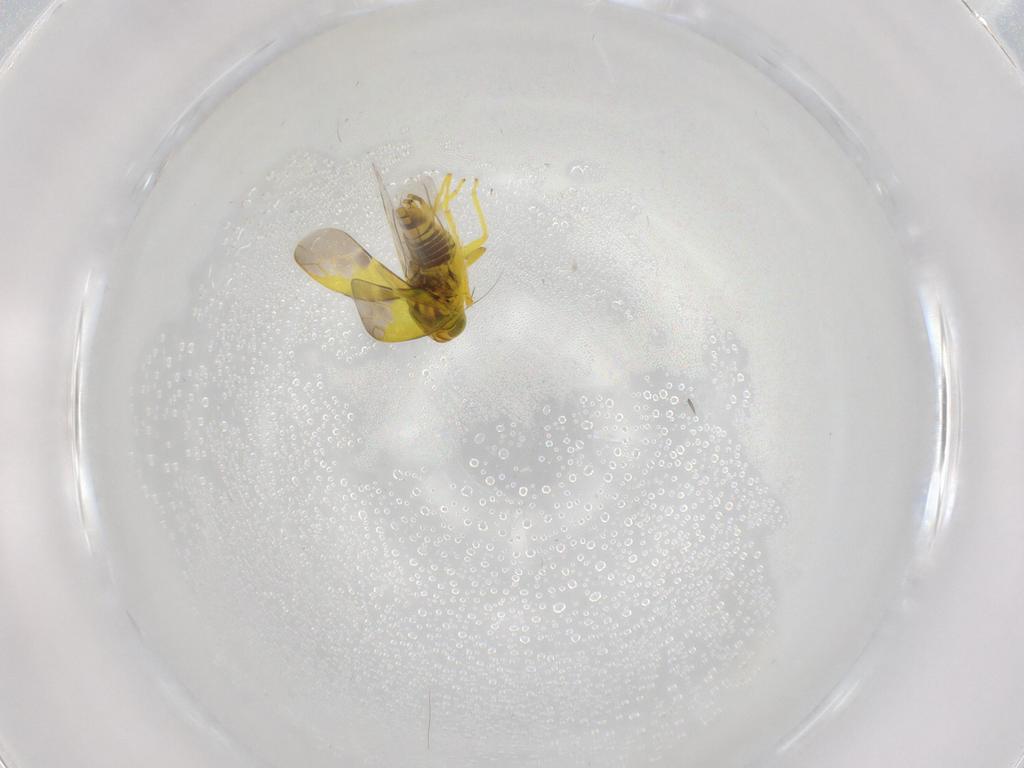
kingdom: Animalia
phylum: Arthropoda
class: Insecta
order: Hemiptera
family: Cicadellidae
